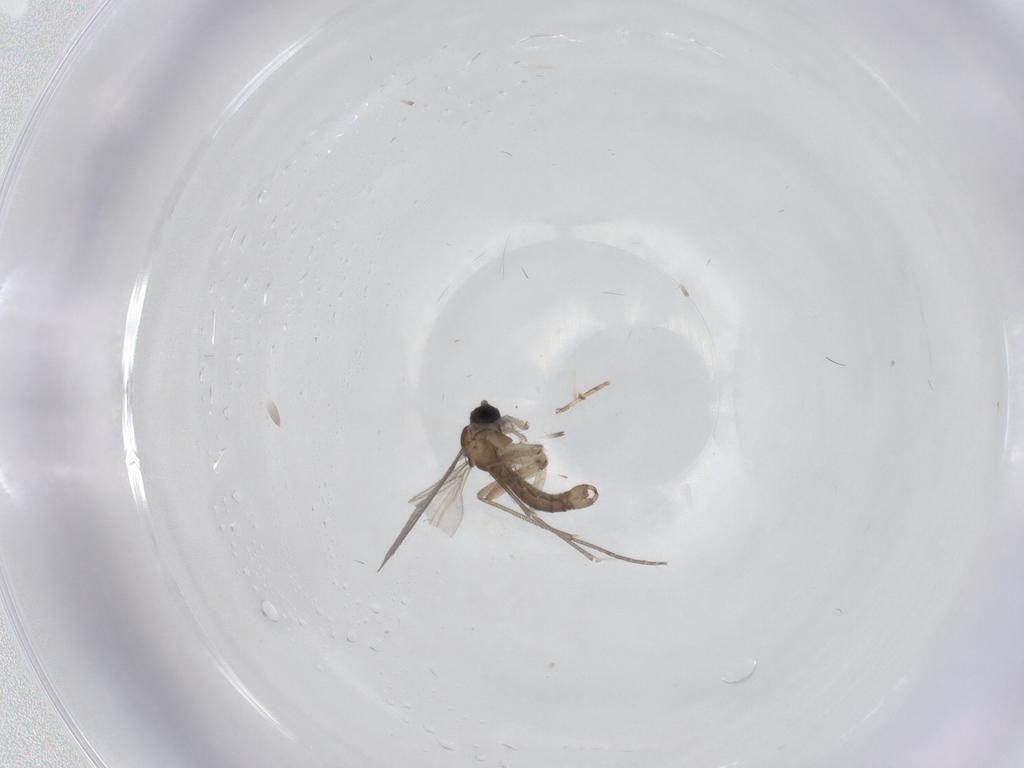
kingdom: Animalia
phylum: Arthropoda
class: Insecta
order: Diptera
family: Sciaridae
